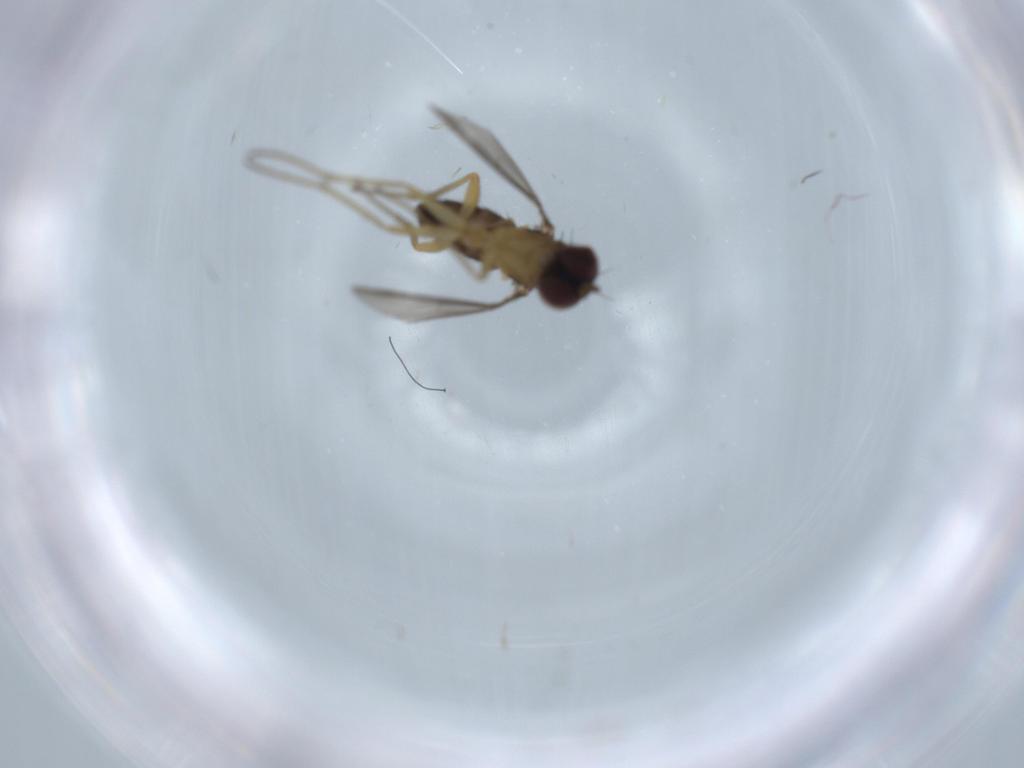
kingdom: Animalia
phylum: Arthropoda
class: Insecta
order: Diptera
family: Dolichopodidae
